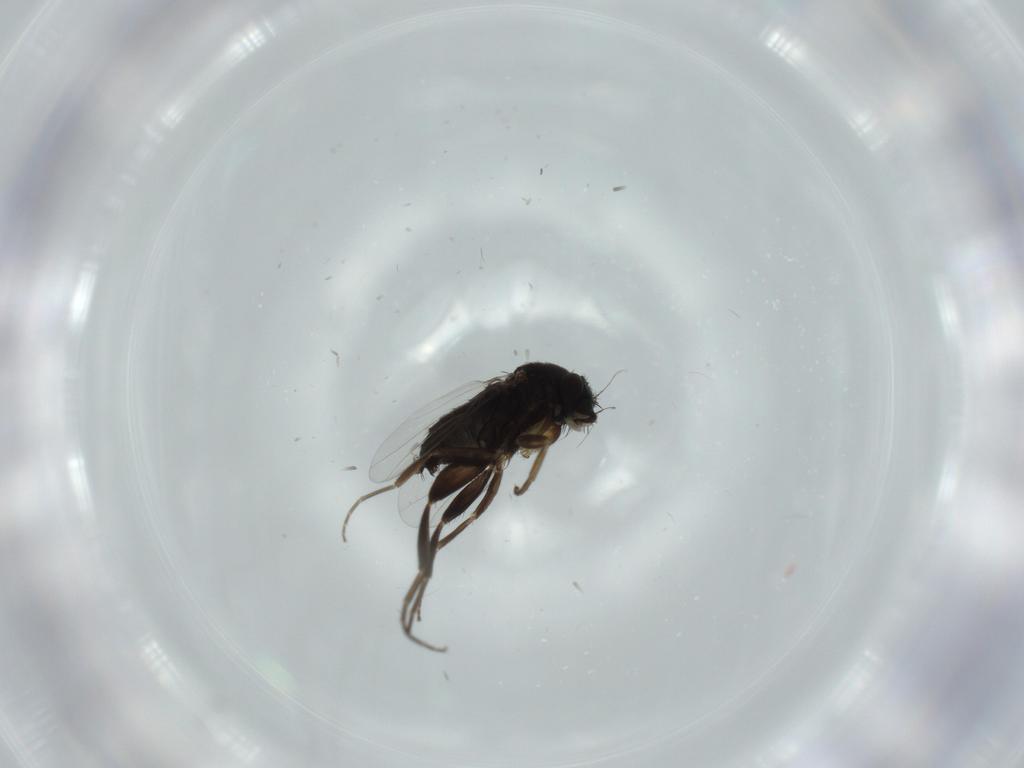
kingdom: Animalia
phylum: Arthropoda
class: Insecta
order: Diptera
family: Phoridae
